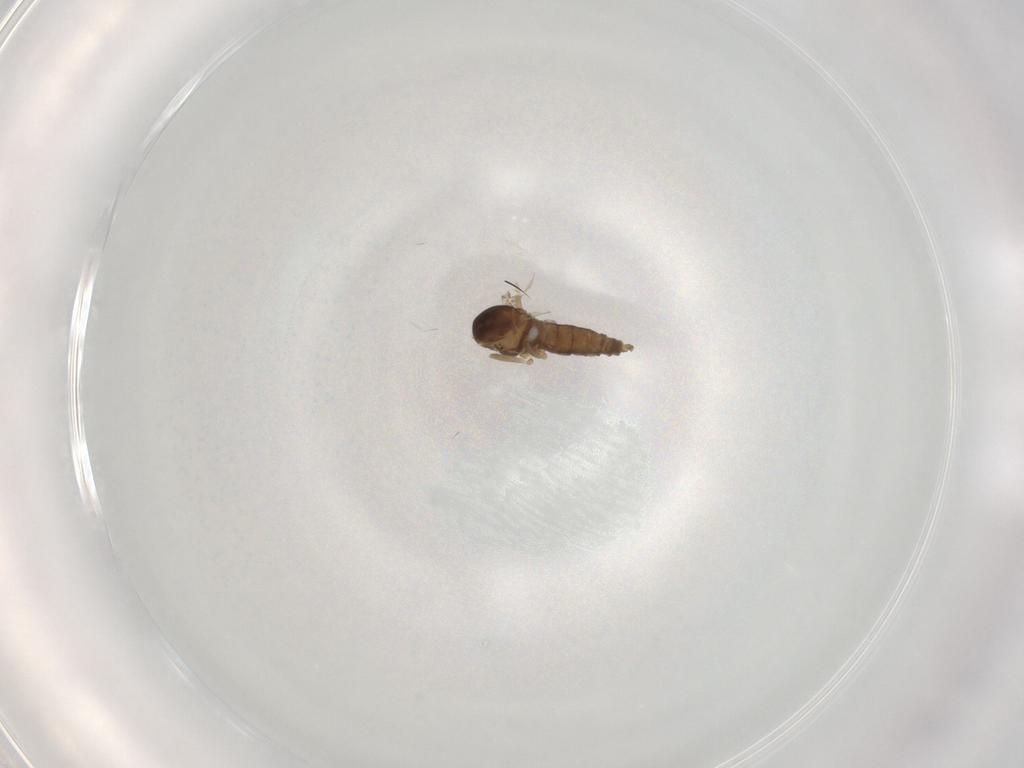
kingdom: Animalia
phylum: Arthropoda
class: Insecta
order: Diptera
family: Cecidomyiidae
